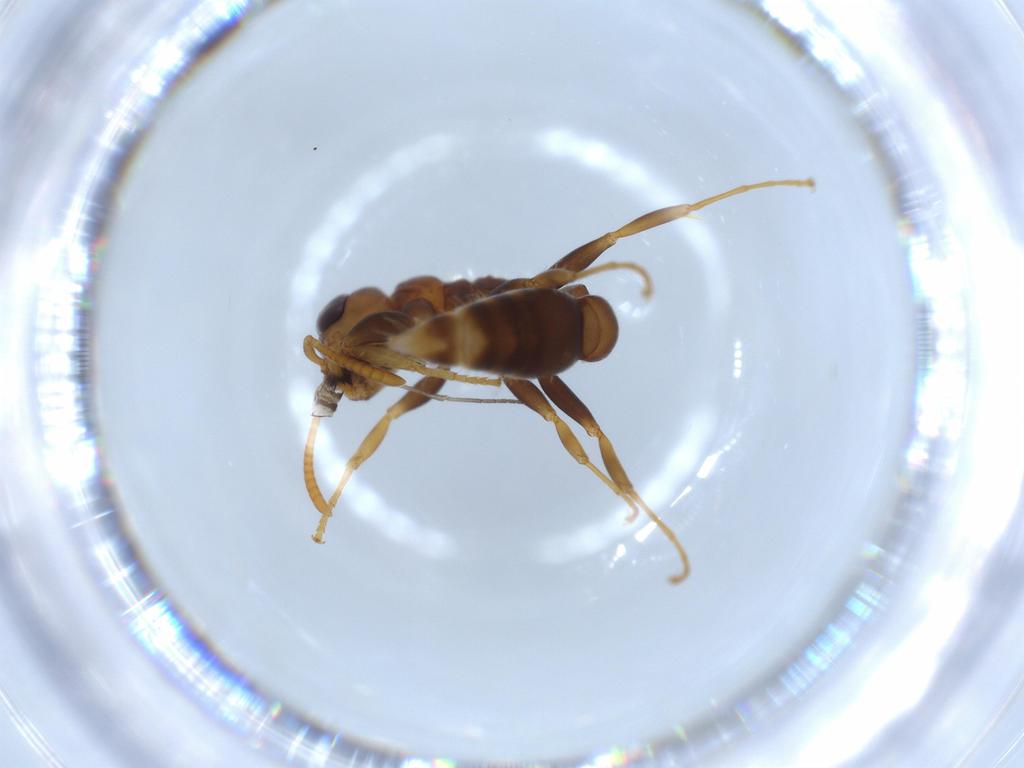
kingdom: Animalia
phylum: Arthropoda
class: Insecta
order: Hymenoptera
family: Formicidae
